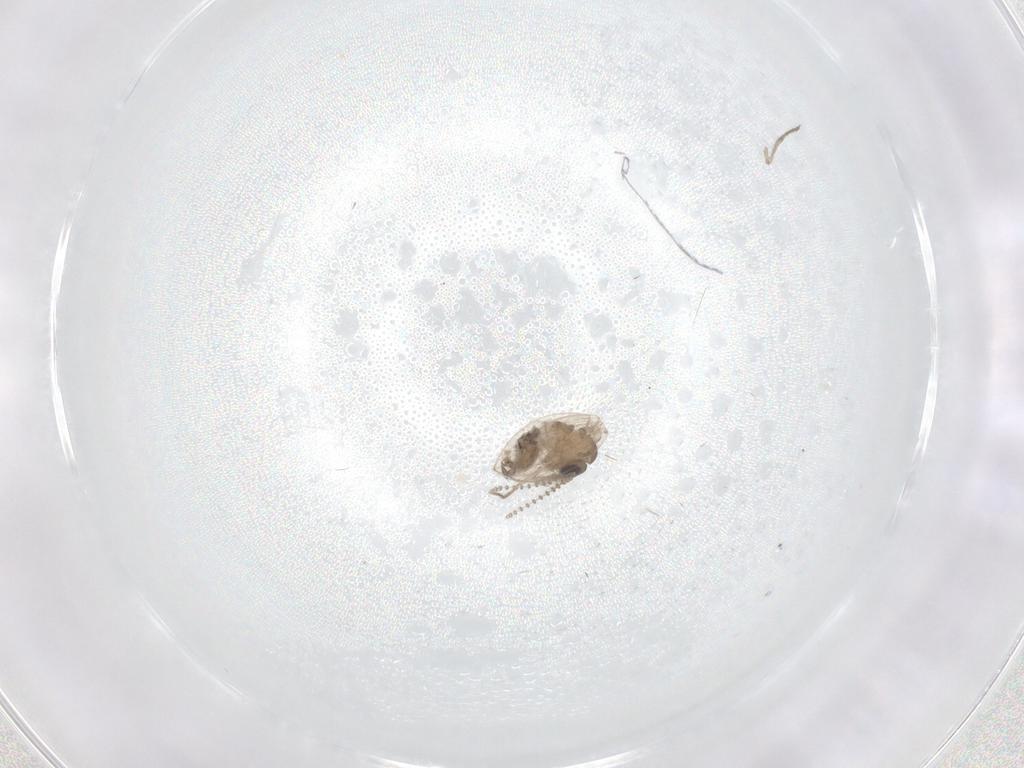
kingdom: Animalia
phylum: Arthropoda
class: Insecta
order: Diptera
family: Psychodidae
